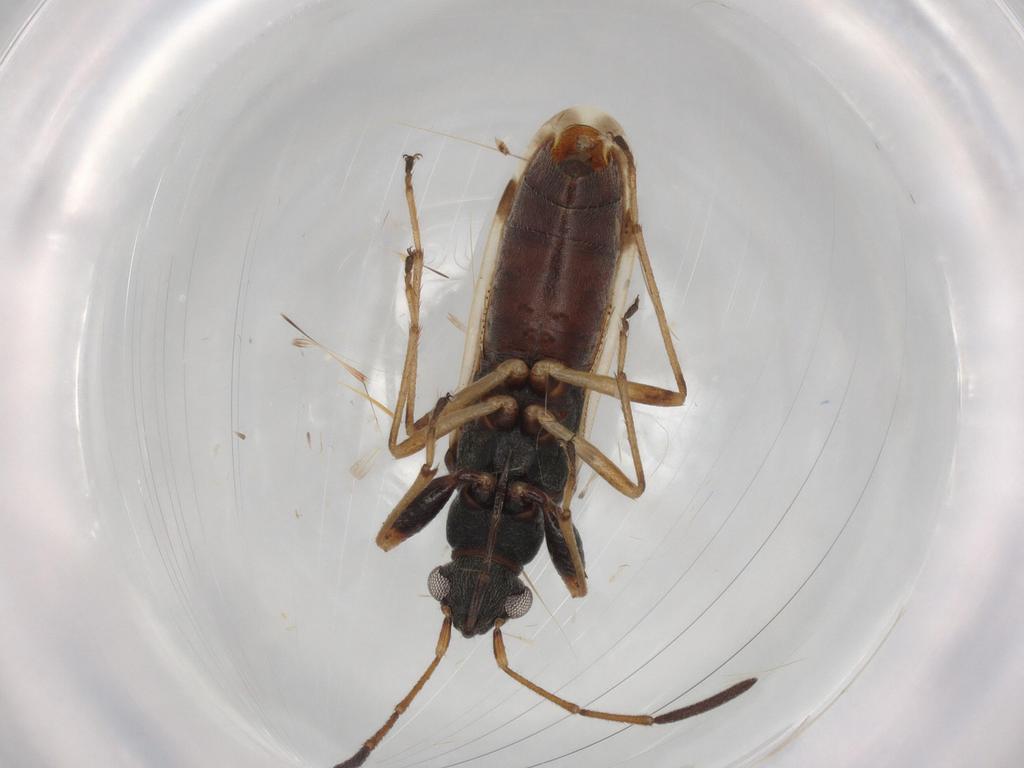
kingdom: Animalia
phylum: Arthropoda
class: Insecta
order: Hemiptera
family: Rhyparochromidae
